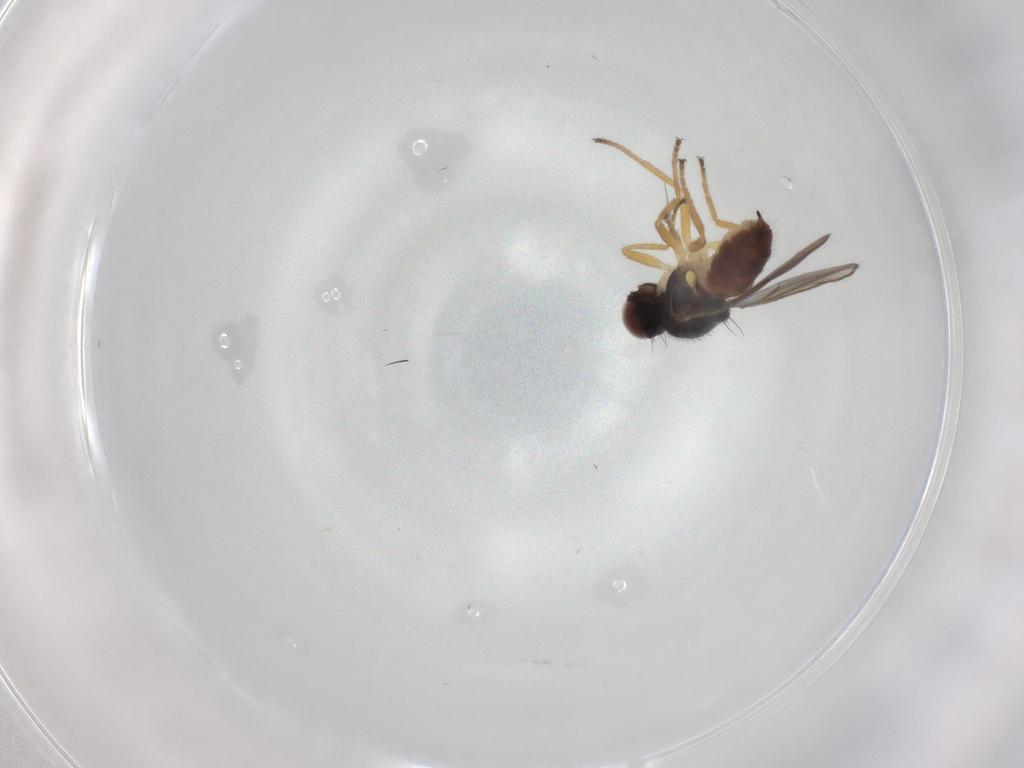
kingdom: Animalia
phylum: Arthropoda
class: Insecta
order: Diptera
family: Chloropidae
